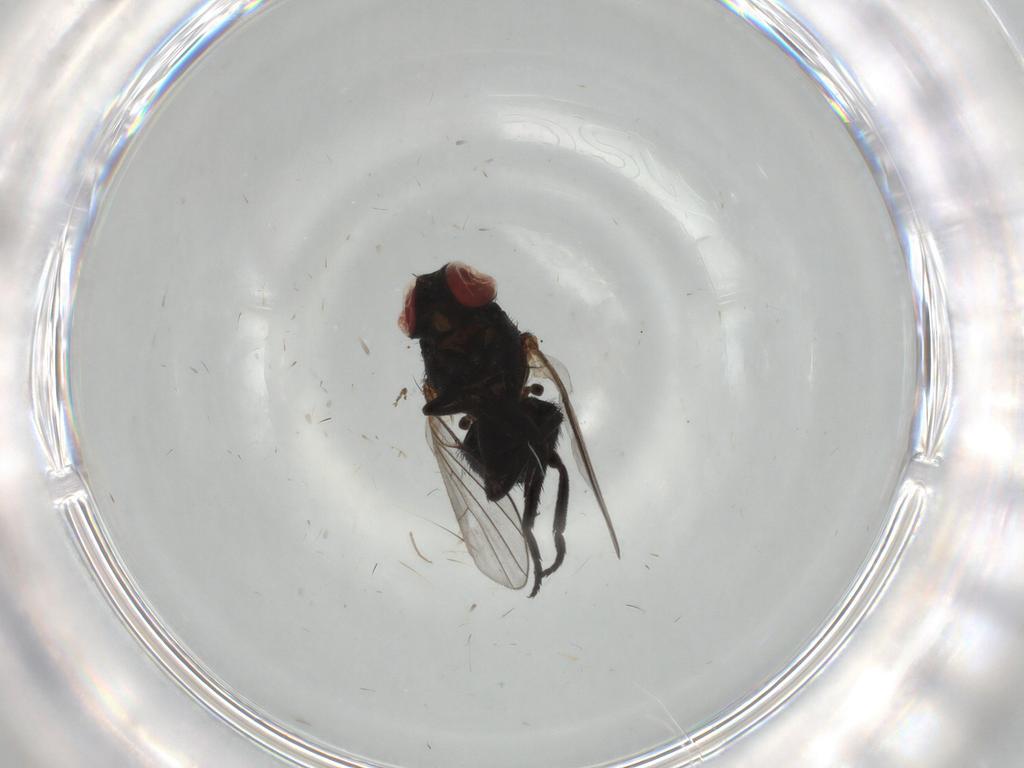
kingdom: Animalia
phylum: Arthropoda
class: Insecta
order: Diptera
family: Agromyzidae
